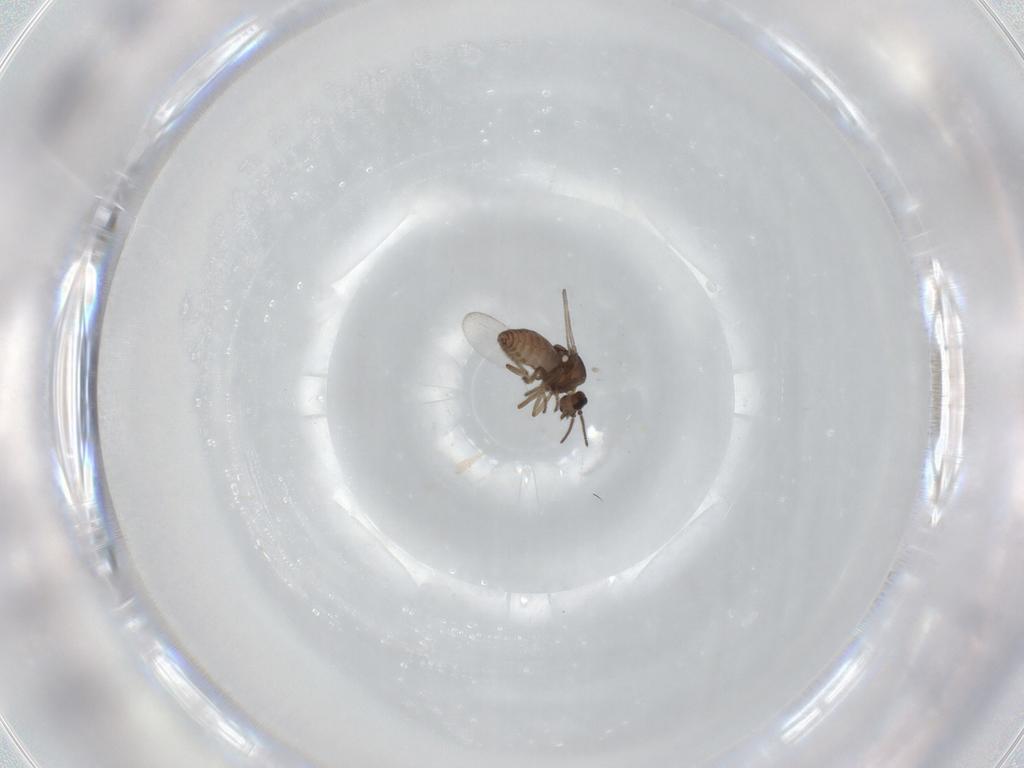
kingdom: Animalia
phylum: Arthropoda
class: Insecta
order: Diptera
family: Ceratopogonidae
